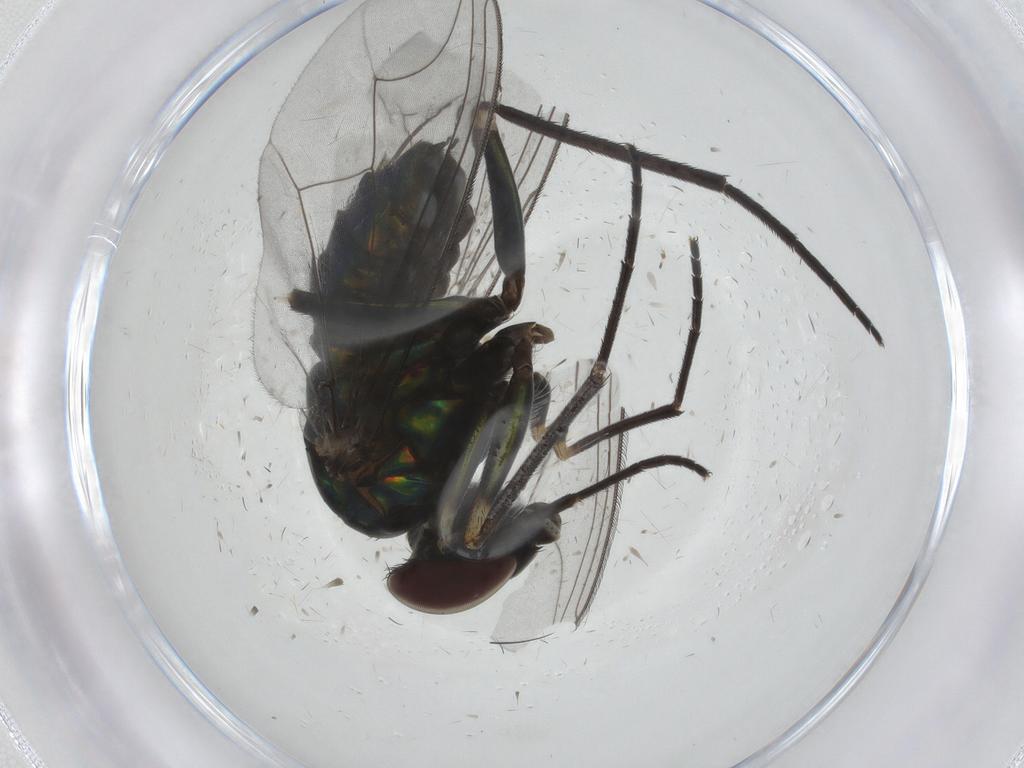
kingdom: Animalia
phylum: Arthropoda
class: Insecta
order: Diptera
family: Dolichopodidae
